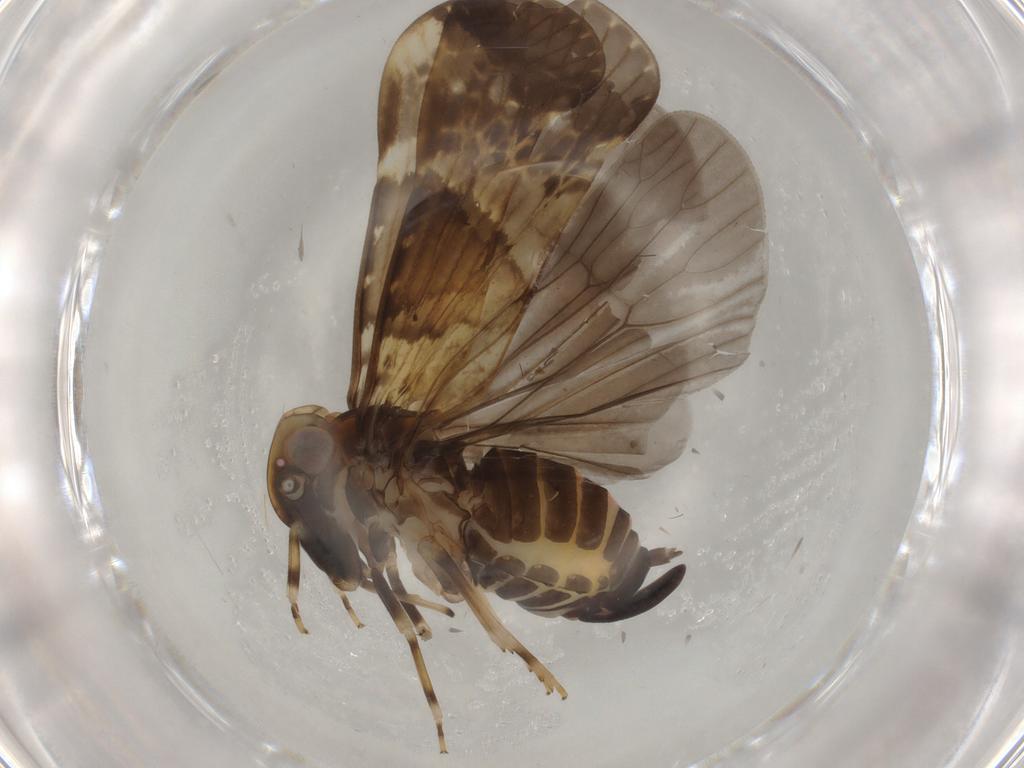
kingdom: Animalia
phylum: Arthropoda
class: Insecta
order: Hemiptera
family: Cixiidae
